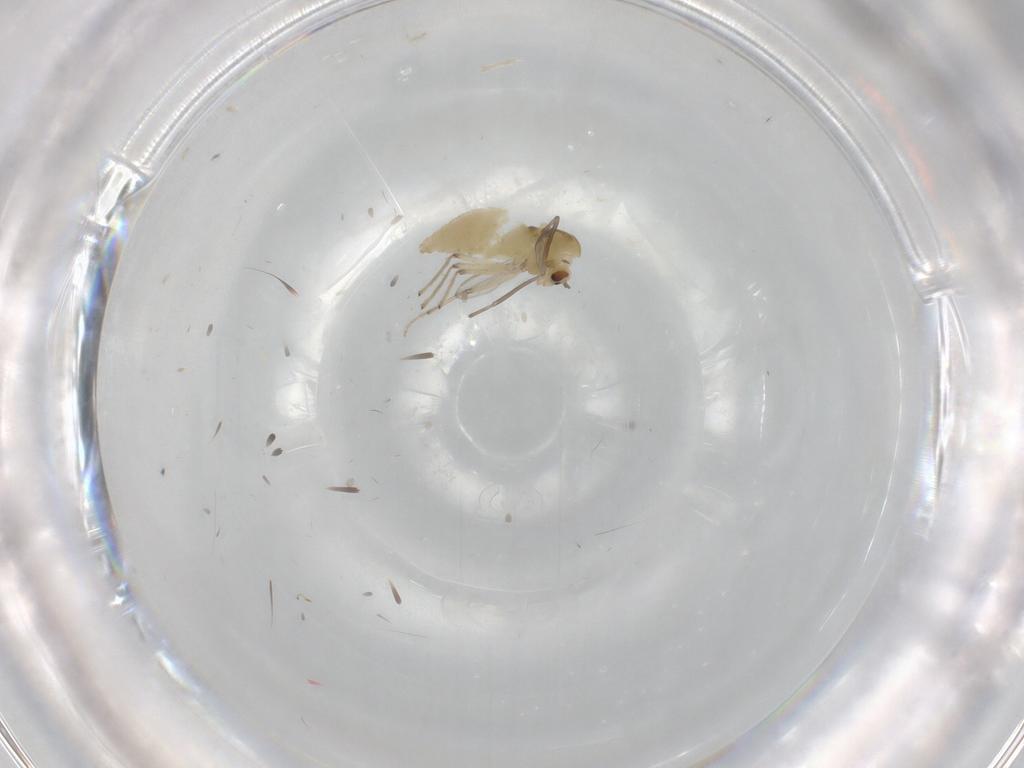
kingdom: Animalia
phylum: Arthropoda
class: Insecta
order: Diptera
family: Chironomidae
